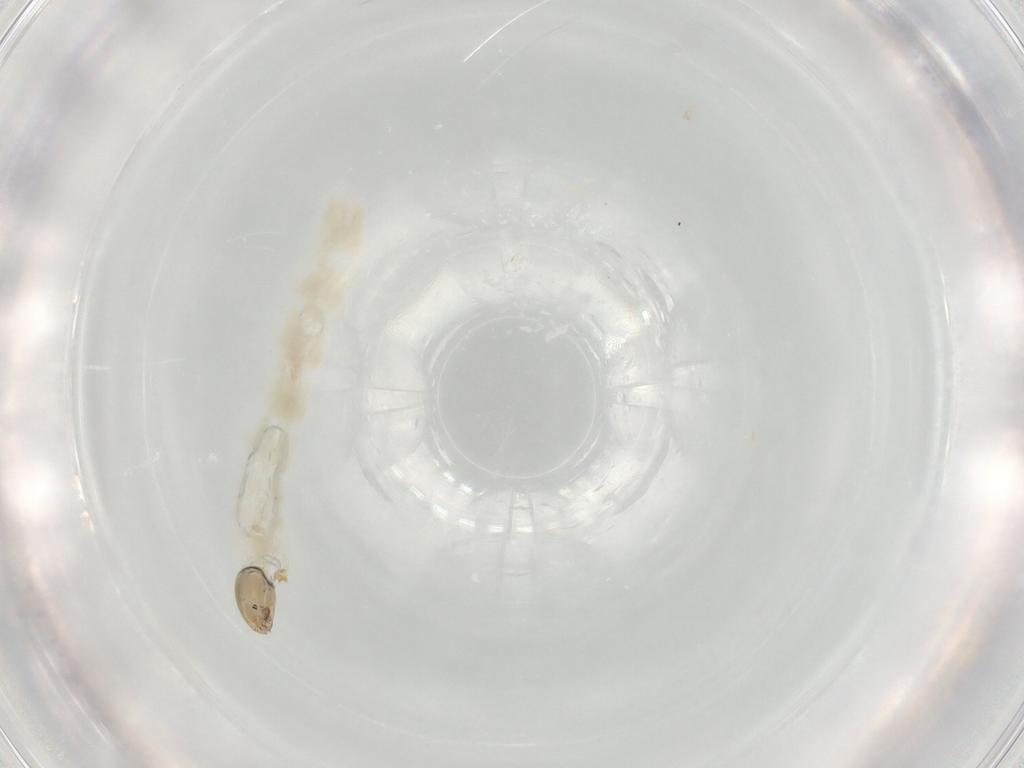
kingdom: Animalia
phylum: Arthropoda
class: Insecta
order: Diptera
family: Chironomidae
